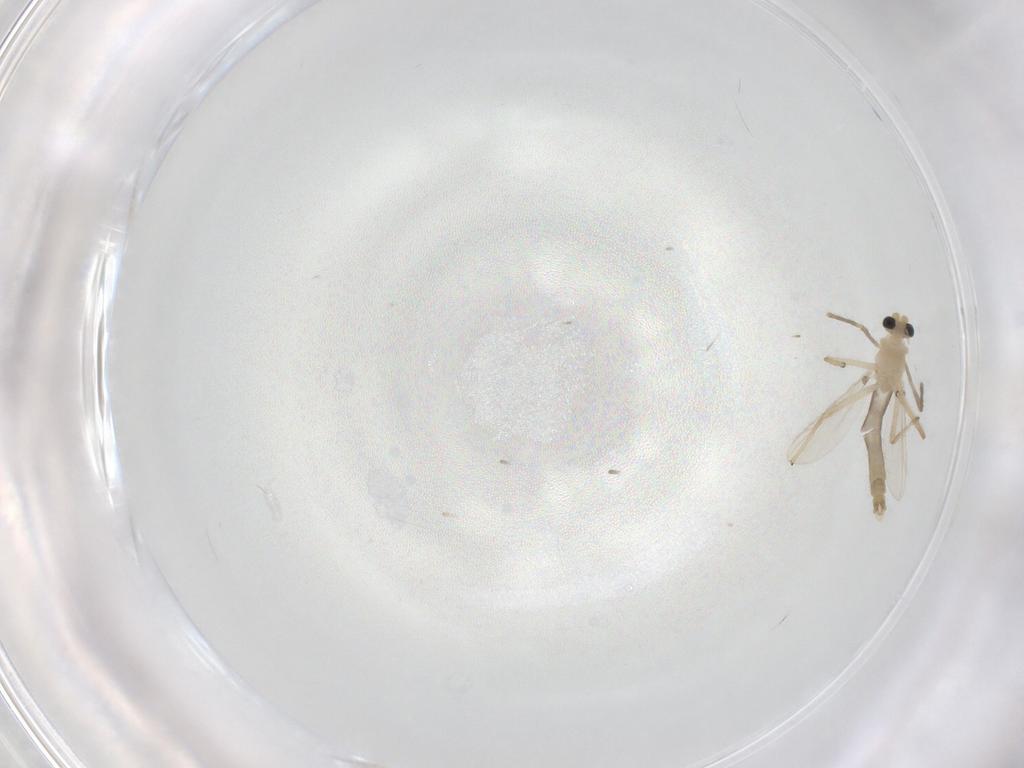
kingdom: Animalia
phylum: Arthropoda
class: Insecta
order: Diptera
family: Chironomidae
